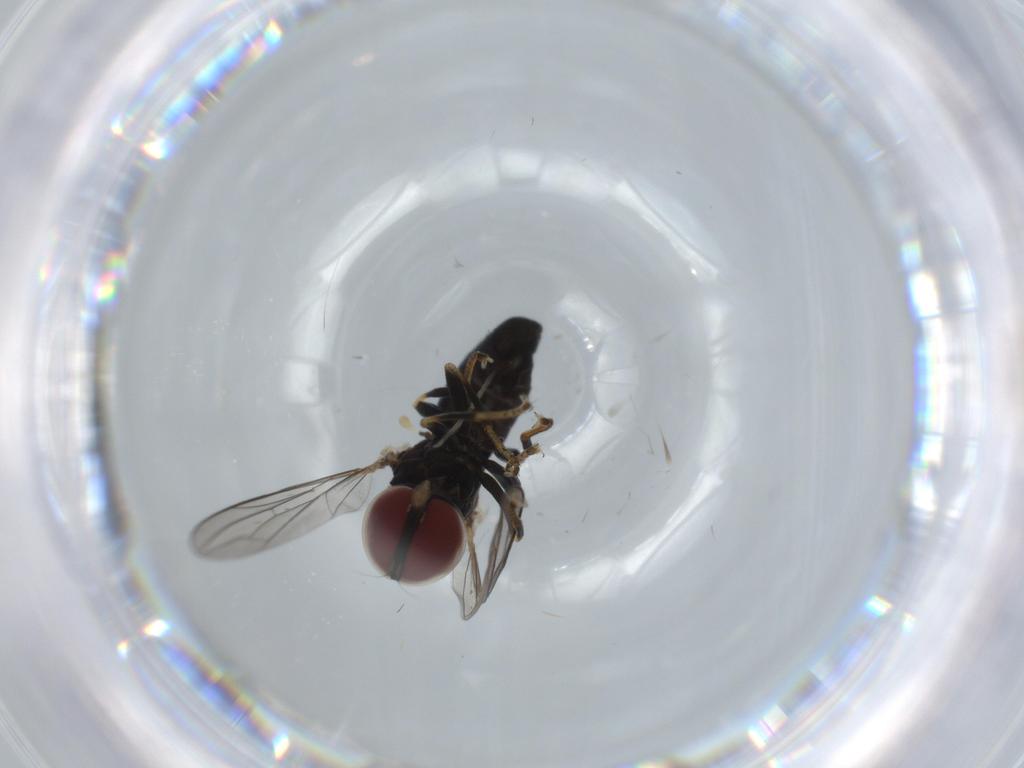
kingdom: Animalia
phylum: Arthropoda
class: Insecta
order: Diptera
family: Pipunculidae
